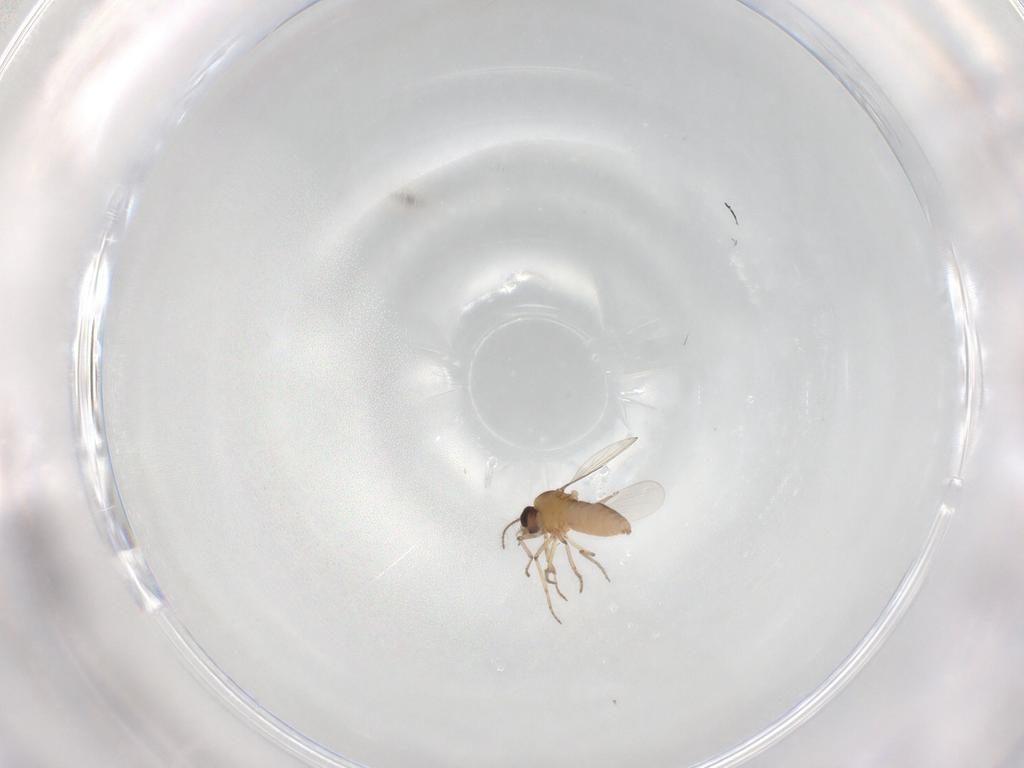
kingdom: Animalia
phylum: Arthropoda
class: Insecta
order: Diptera
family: Ceratopogonidae
